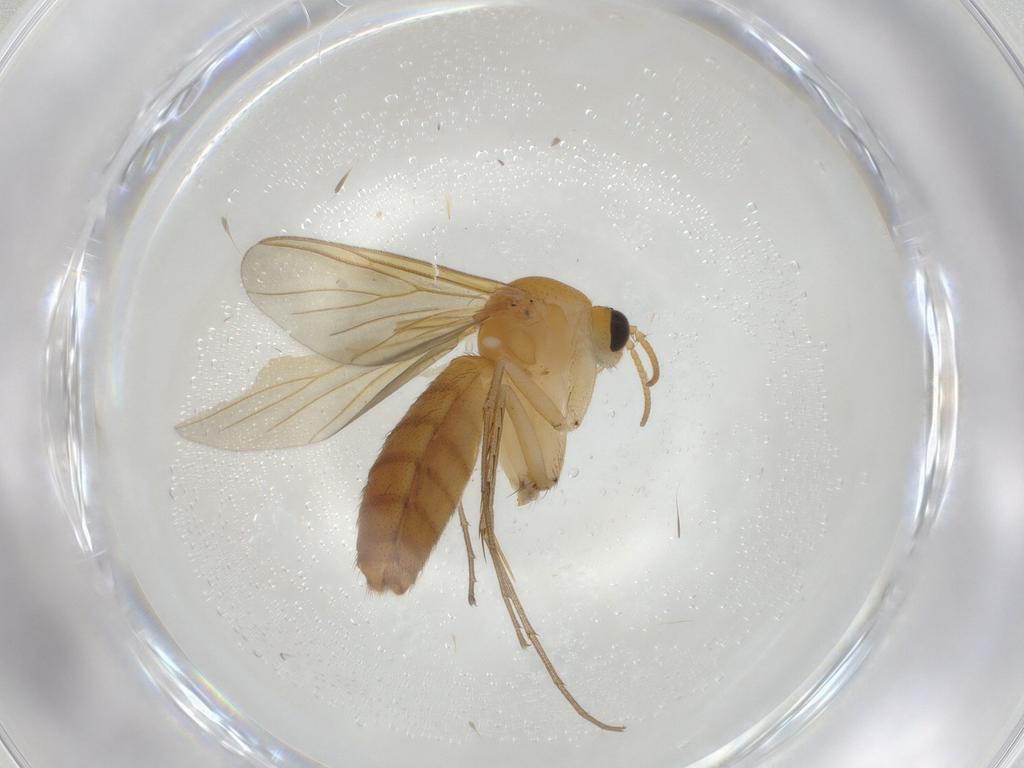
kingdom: Animalia
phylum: Arthropoda
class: Insecta
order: Diptera
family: Mycetophilidae
